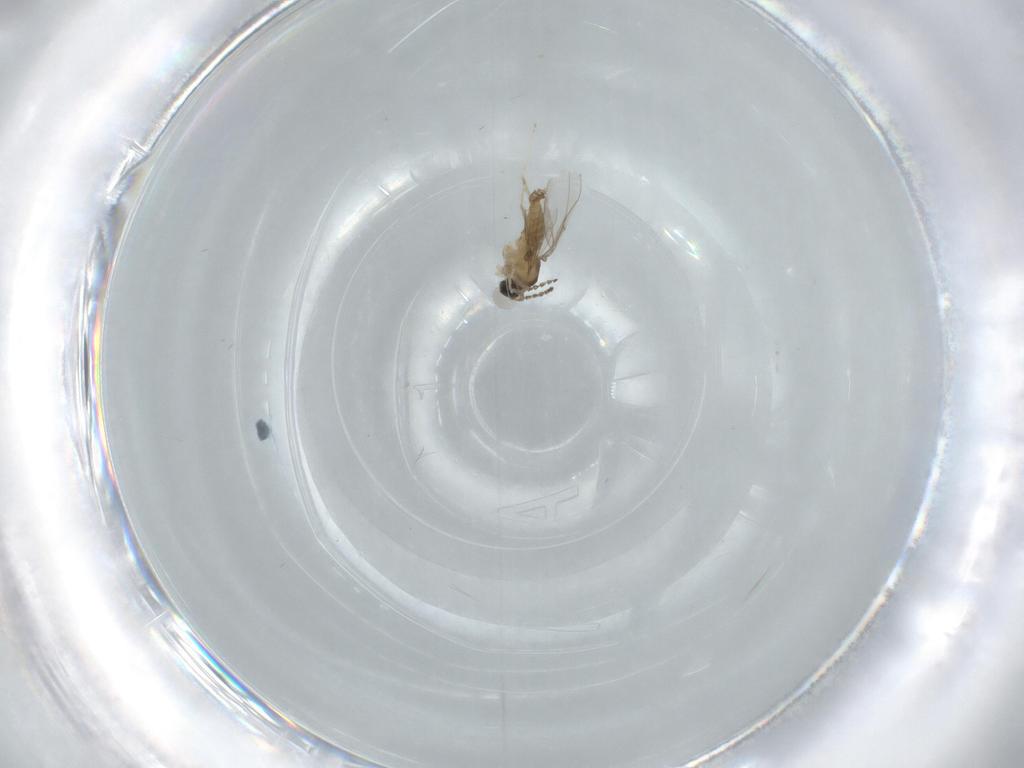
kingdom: Animalia
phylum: Arthropoda
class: Insecta
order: Diptera
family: Cecidomyiidae
